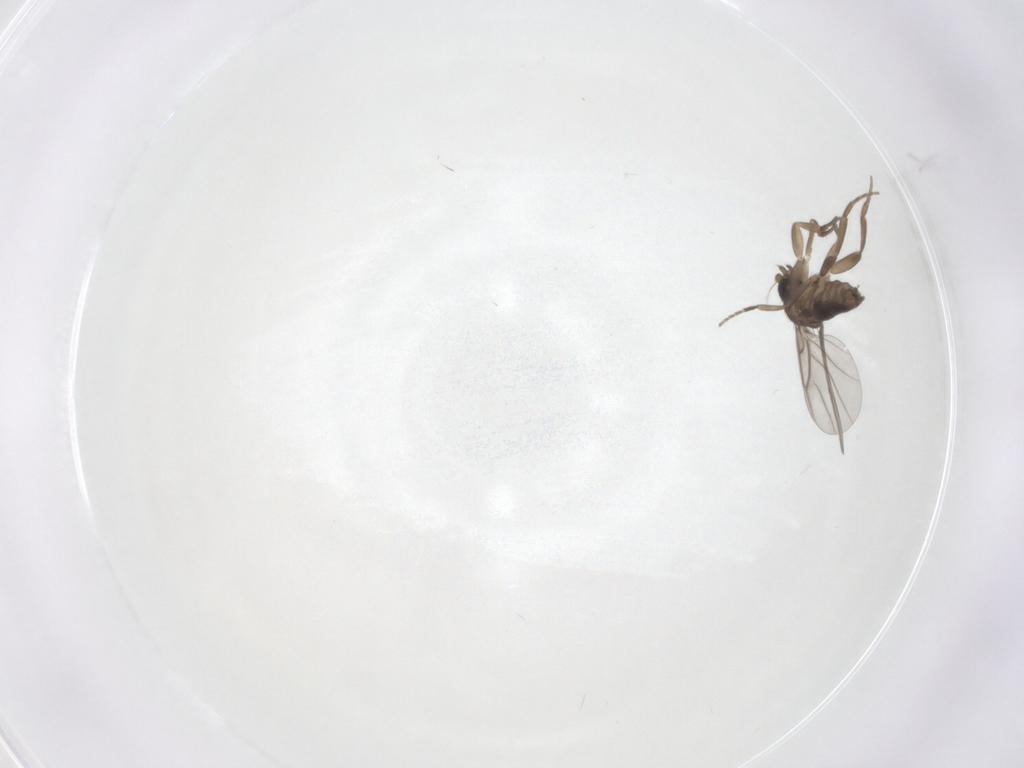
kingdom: Animalia
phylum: Arthropoda
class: Insecta
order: Diptera
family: Phoridae
